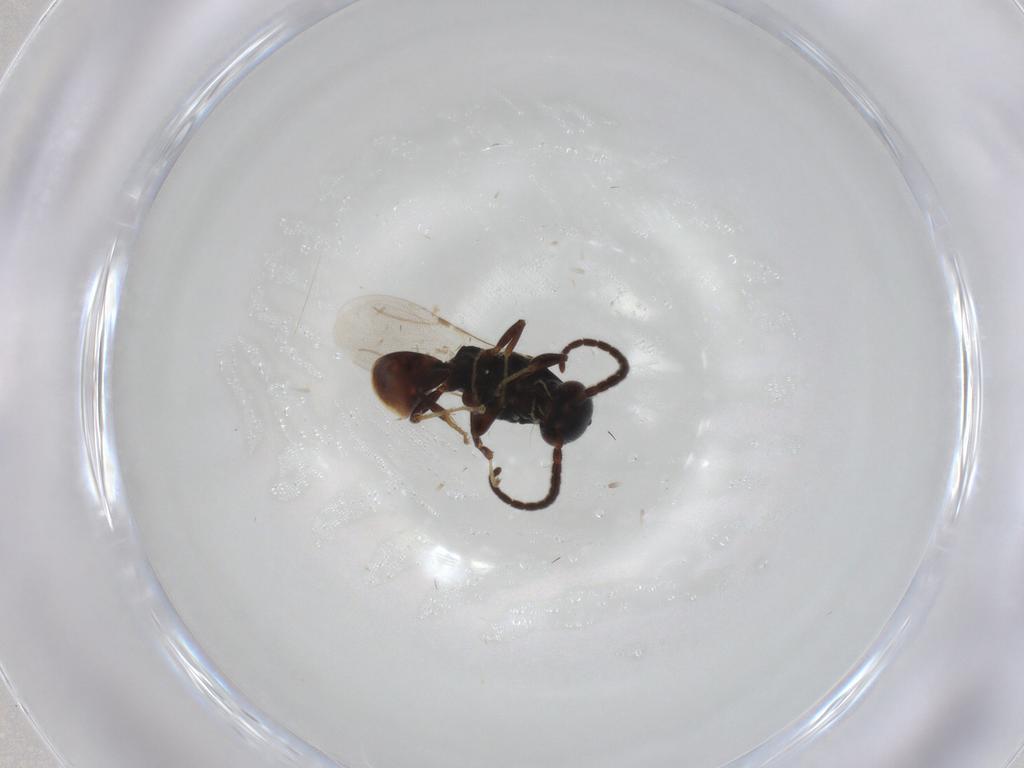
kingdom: Animalia
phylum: Arthropoda
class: Insecta
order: Hymenoptera
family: Bethylidae
